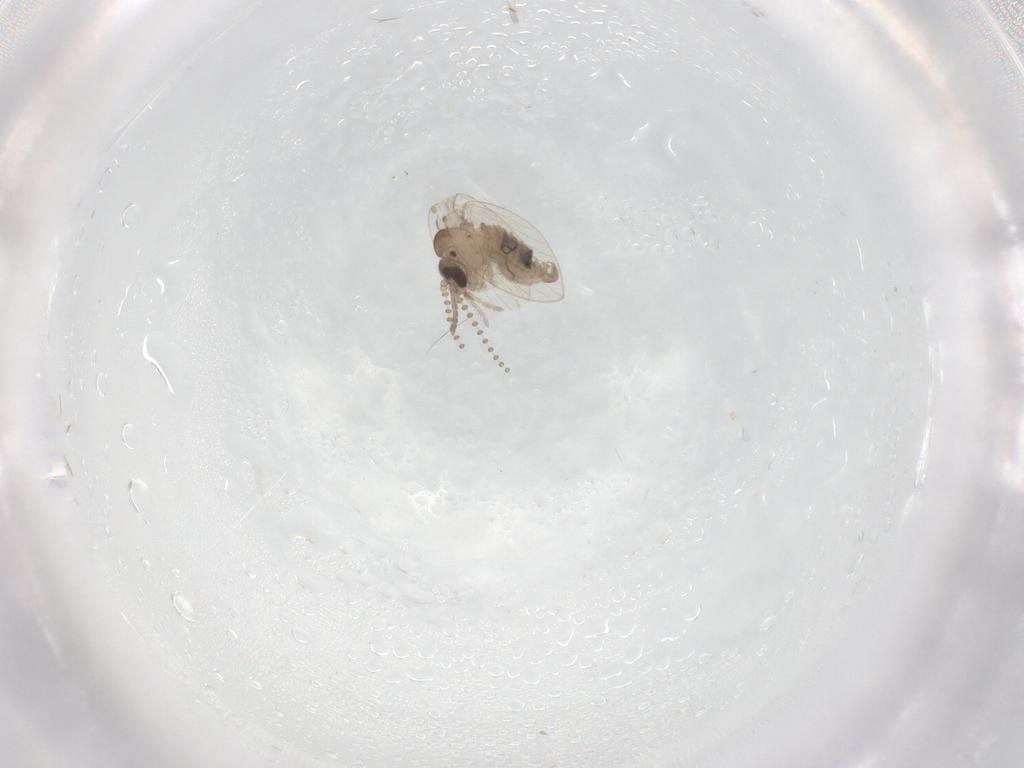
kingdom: Animalia
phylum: Arthropoda
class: Insecta
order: Diptera
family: Psychodidae
